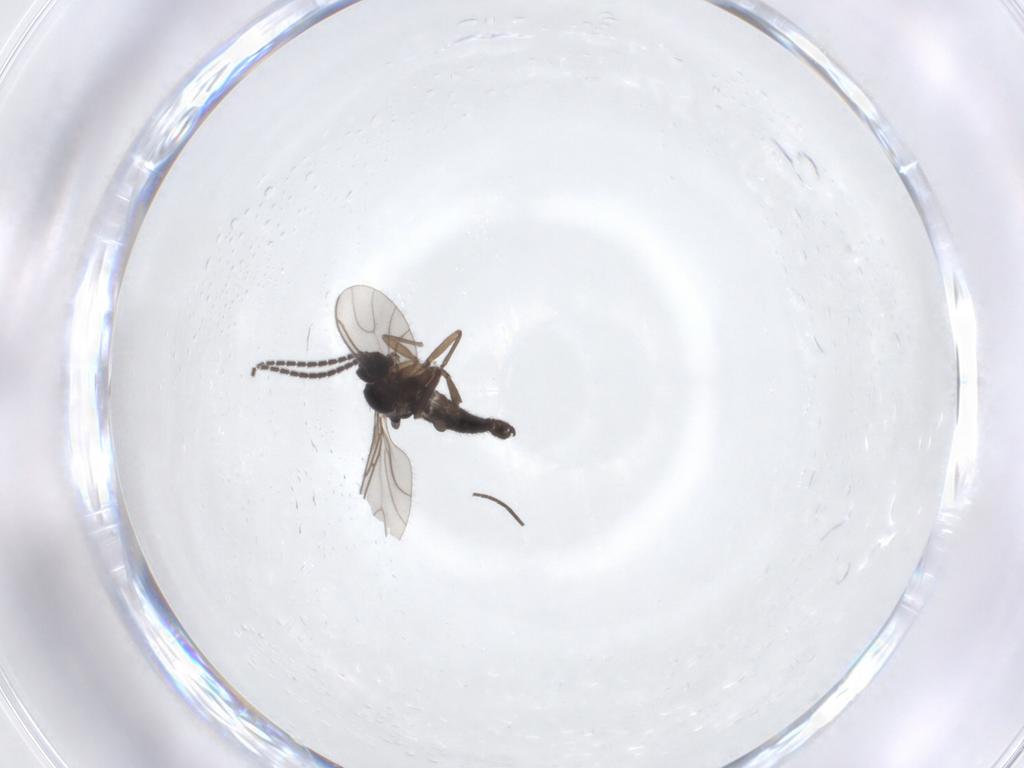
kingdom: Animalia
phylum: Arthropoda
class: Insecta
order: Diptera
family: Sciaridae
